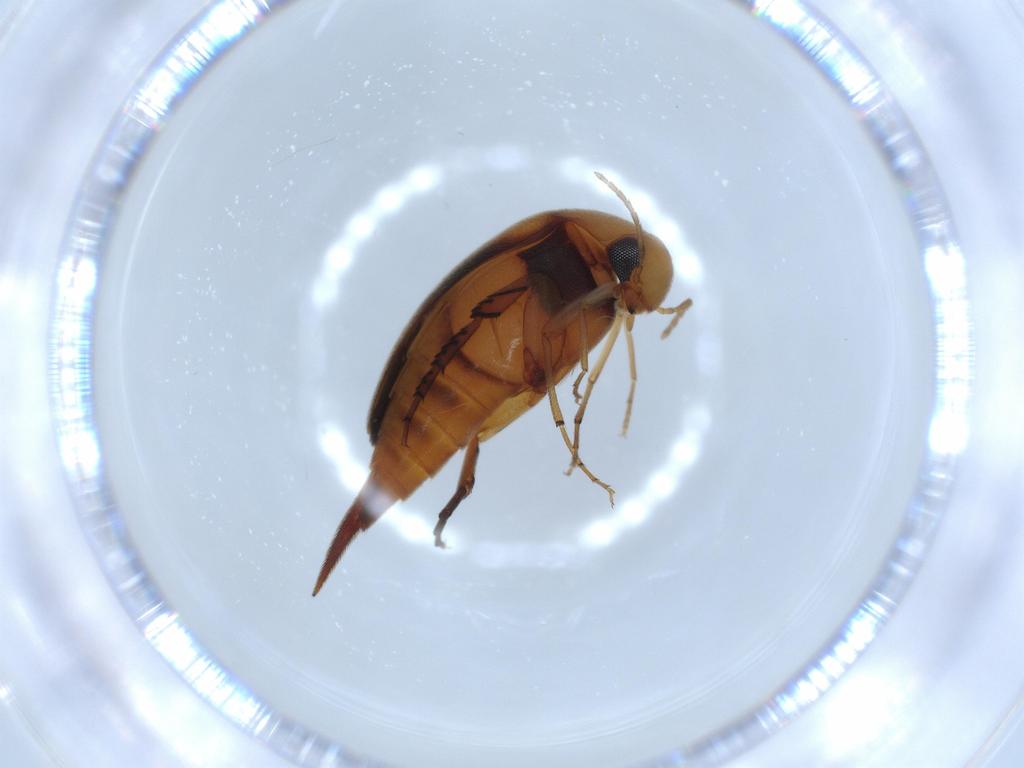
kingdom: Animalia
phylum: Arthropoda
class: Insecta
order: Coleoptera
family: Mordellidae
